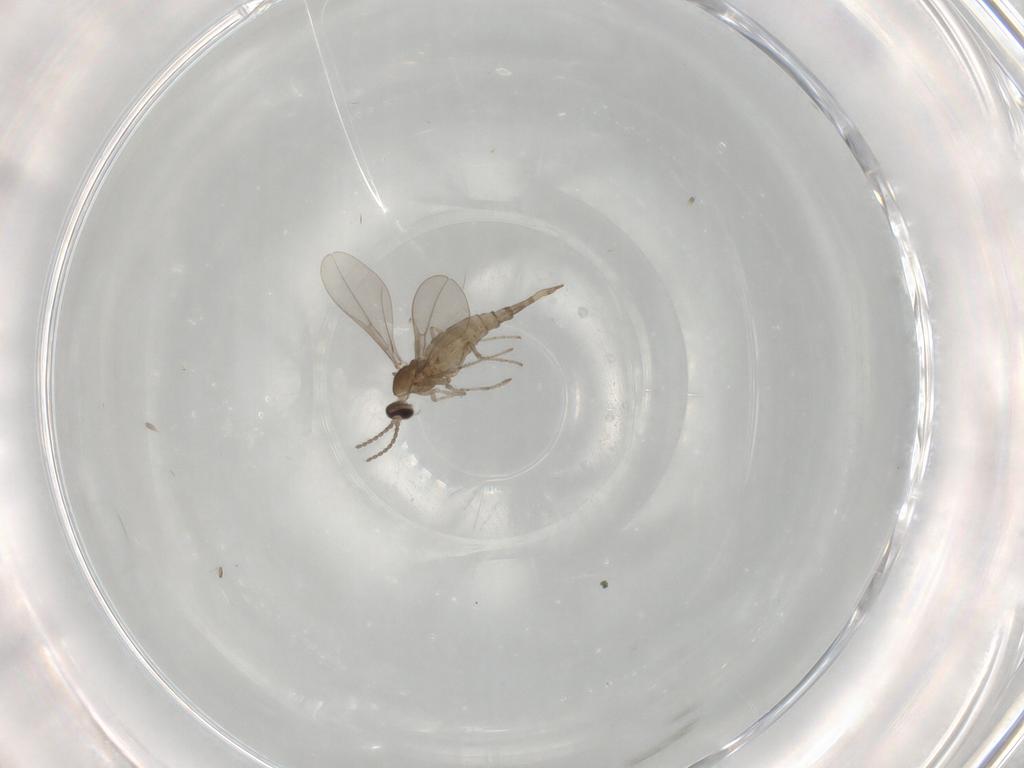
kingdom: Animalia
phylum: Arthropoda
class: Insecta
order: Diptera
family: Cecidomyiidae
